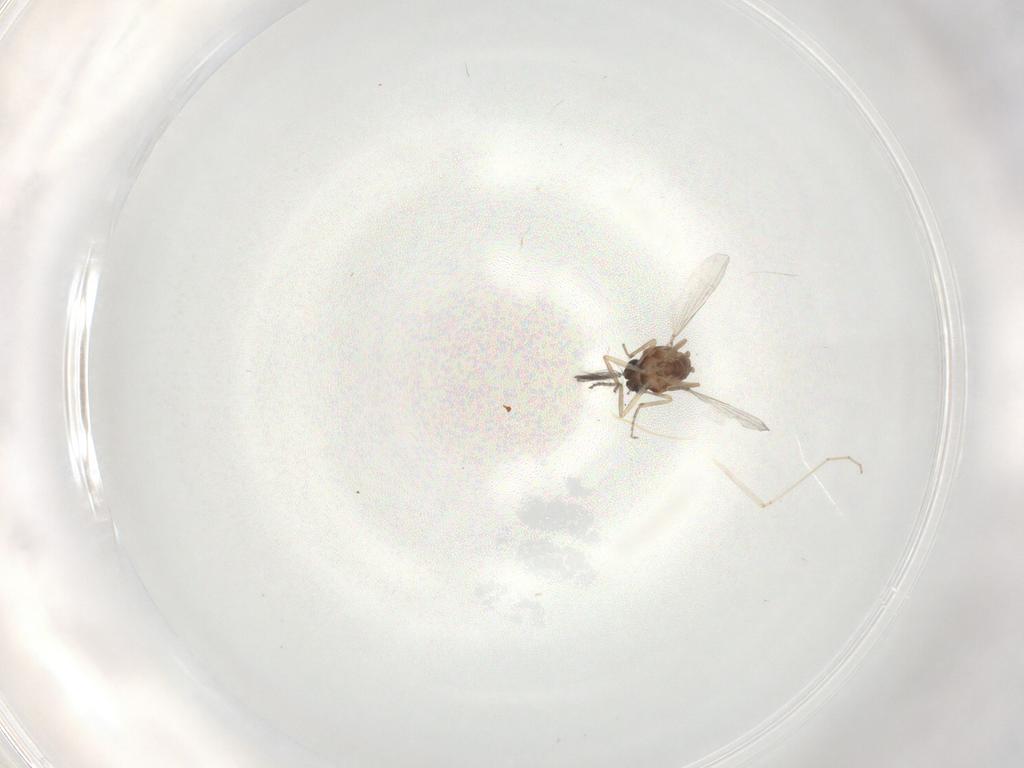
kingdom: Animalia
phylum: Arthropoda
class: Insecta
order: Diptera
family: Ceratopogonidae
